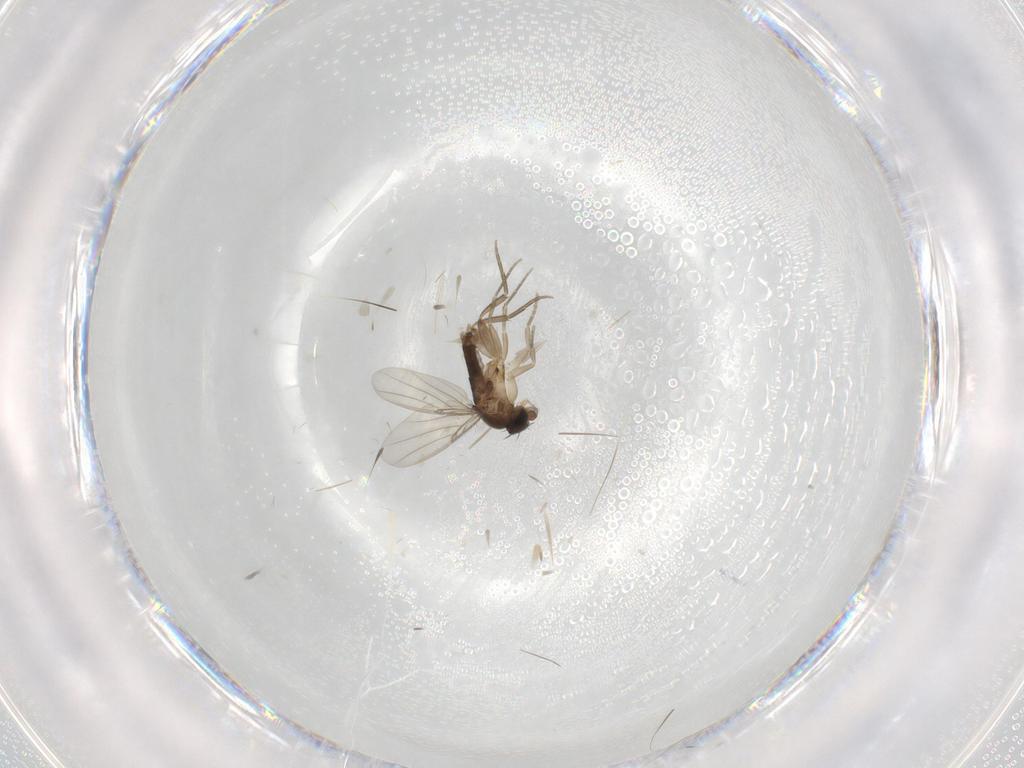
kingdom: Animalia
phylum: Arthropoda
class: Insecta
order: Diptera
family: Phoridae
